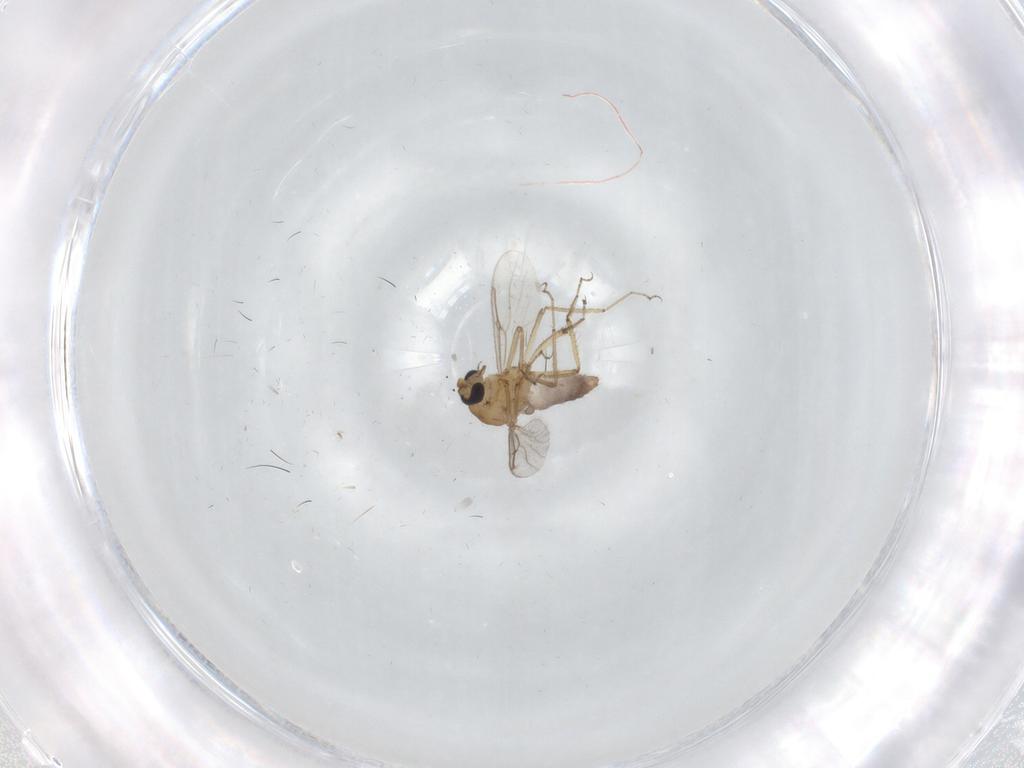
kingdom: Animalia
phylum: Arthropoda
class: Insecta
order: Diptera
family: Cecidomyiidae
